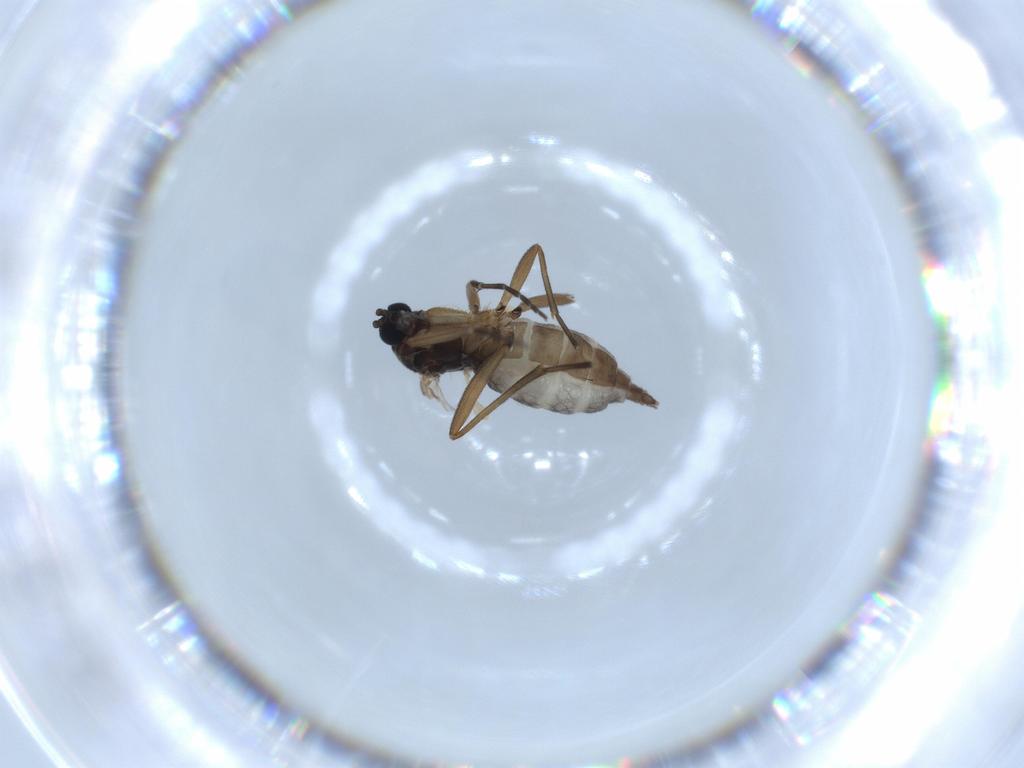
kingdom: Animalia
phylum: Arthropoda
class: Insecta
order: Diptera
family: Sciaridae
